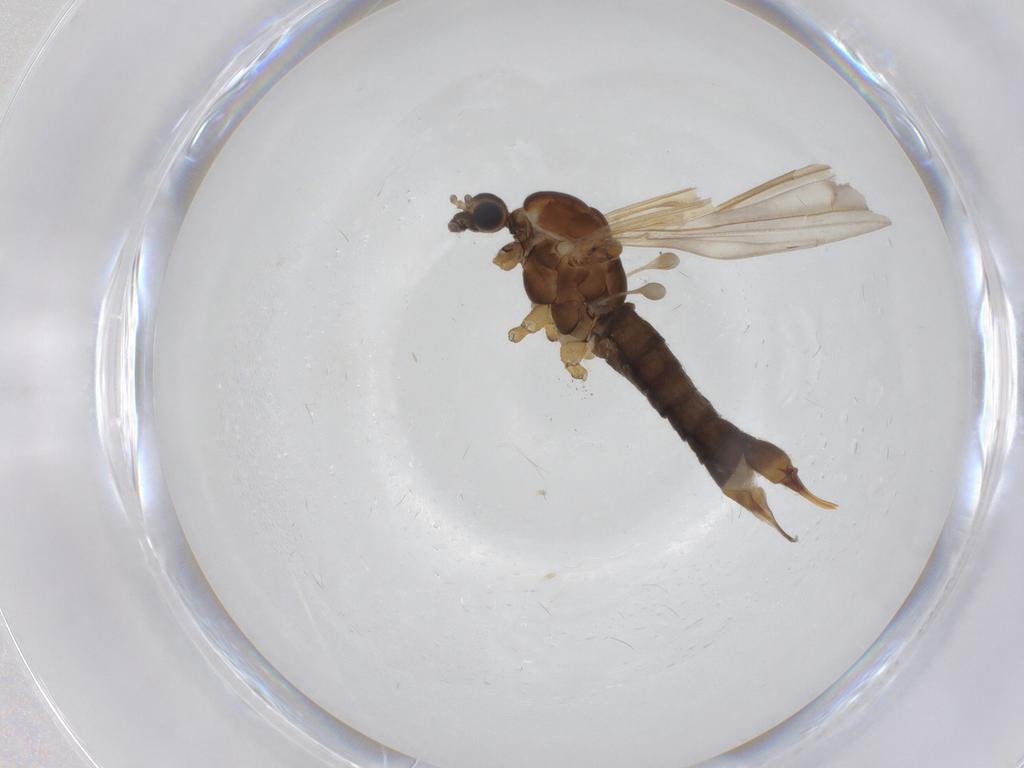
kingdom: Animalia
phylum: Arthropoda
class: Insecta
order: Diptera
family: Limoniidae
